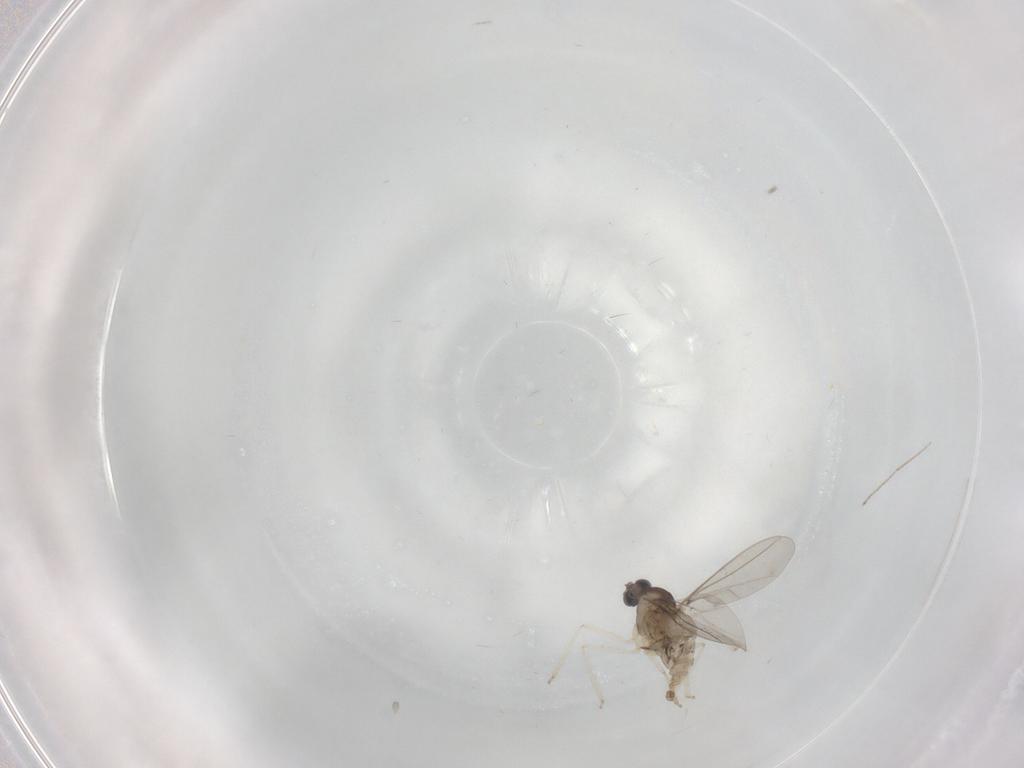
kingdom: Animalia
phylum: Arthropoda
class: Insecta
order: Diptera
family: Cecidomyiidae
